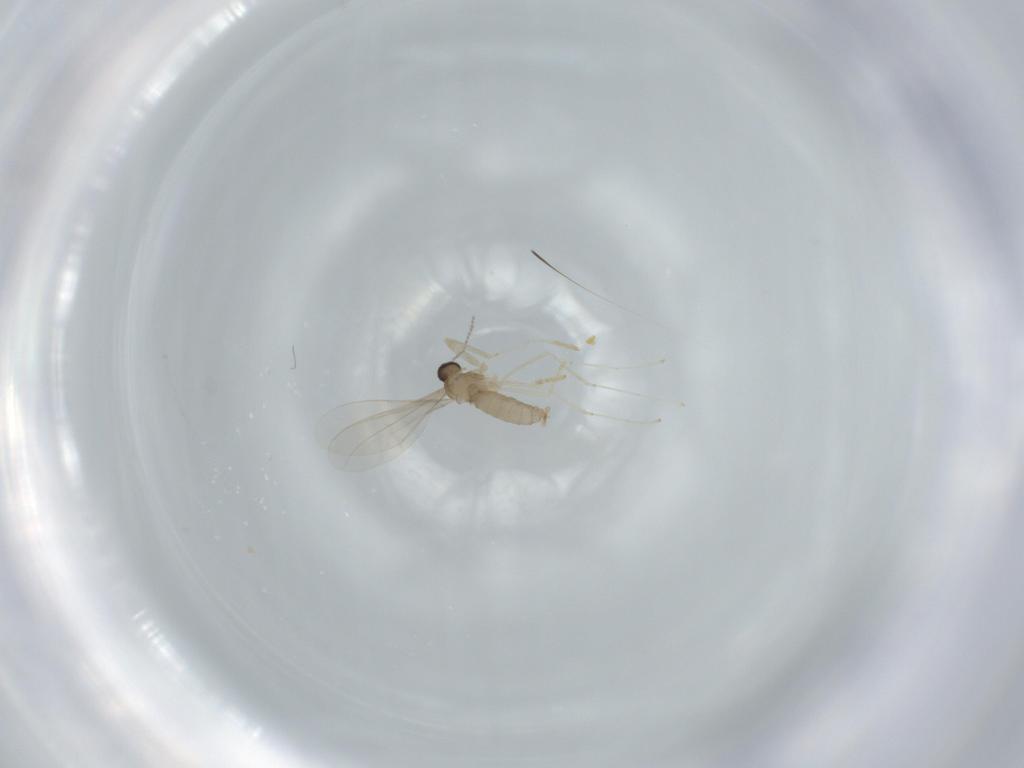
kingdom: Animalia
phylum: Arthropoda
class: Insecta
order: Diptera
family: Cecidomyiidae
